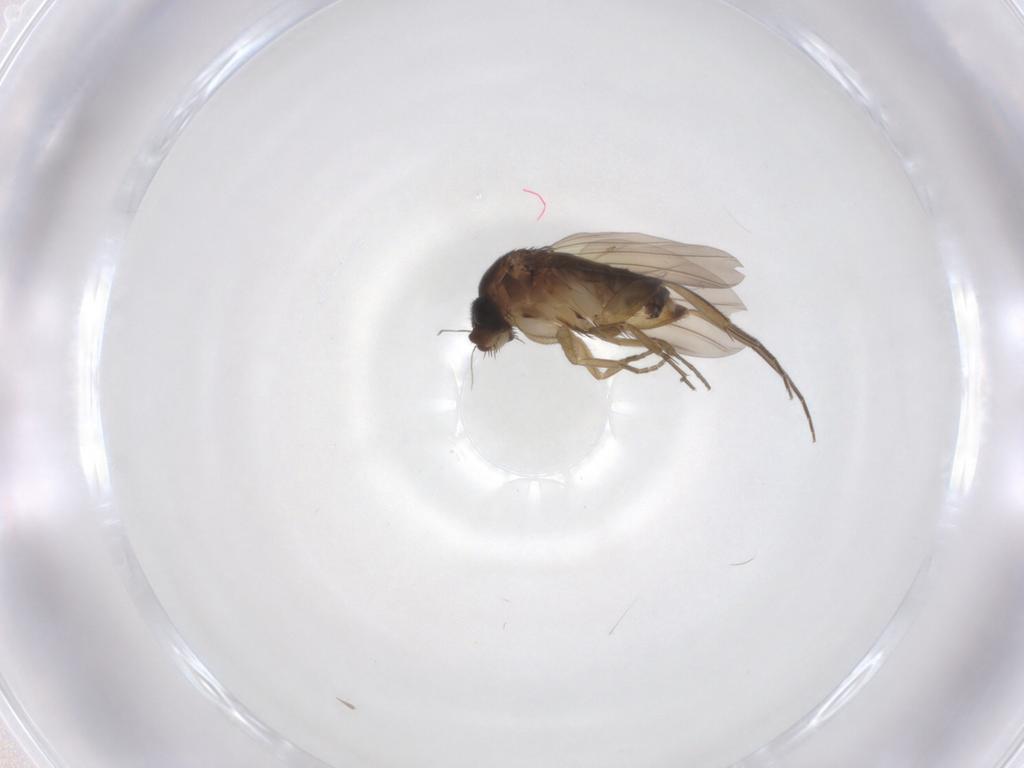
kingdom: Animalia
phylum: Arthropoda
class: Insecta
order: Diptera
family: Phoridae
